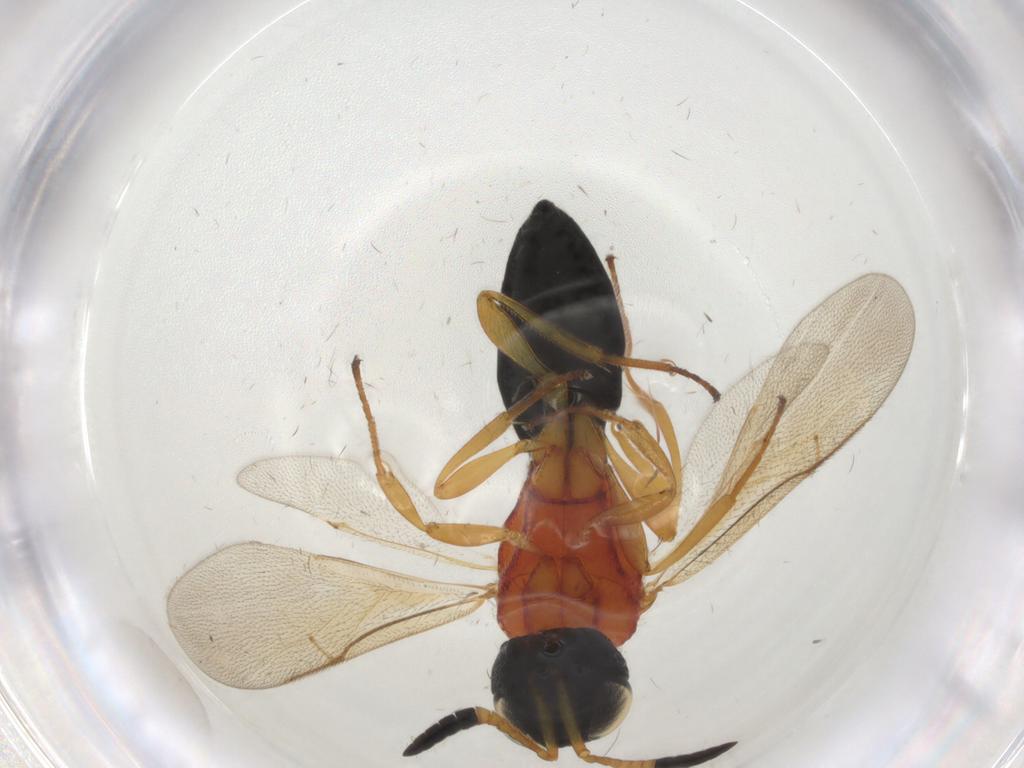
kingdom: Animalia
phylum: Arthropoda
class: Insecta
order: Hymenoptera
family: Scelionidae
